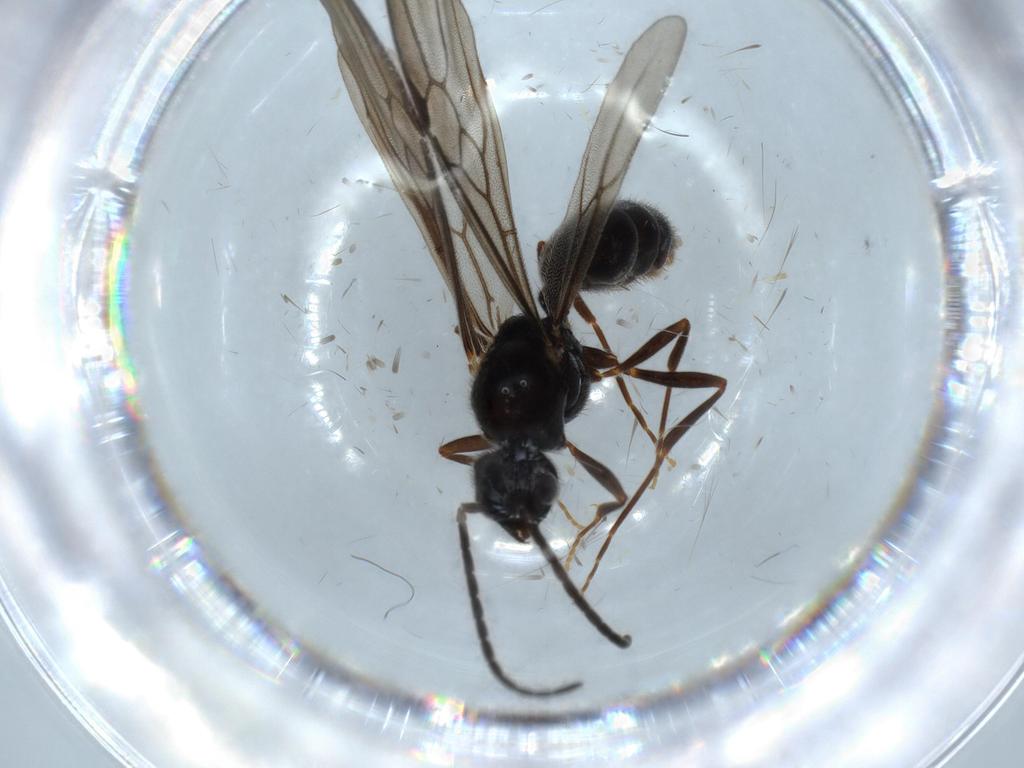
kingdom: Animalia
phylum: Arthropoda
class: Insecta
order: Hymenoptera
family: Formicidae
